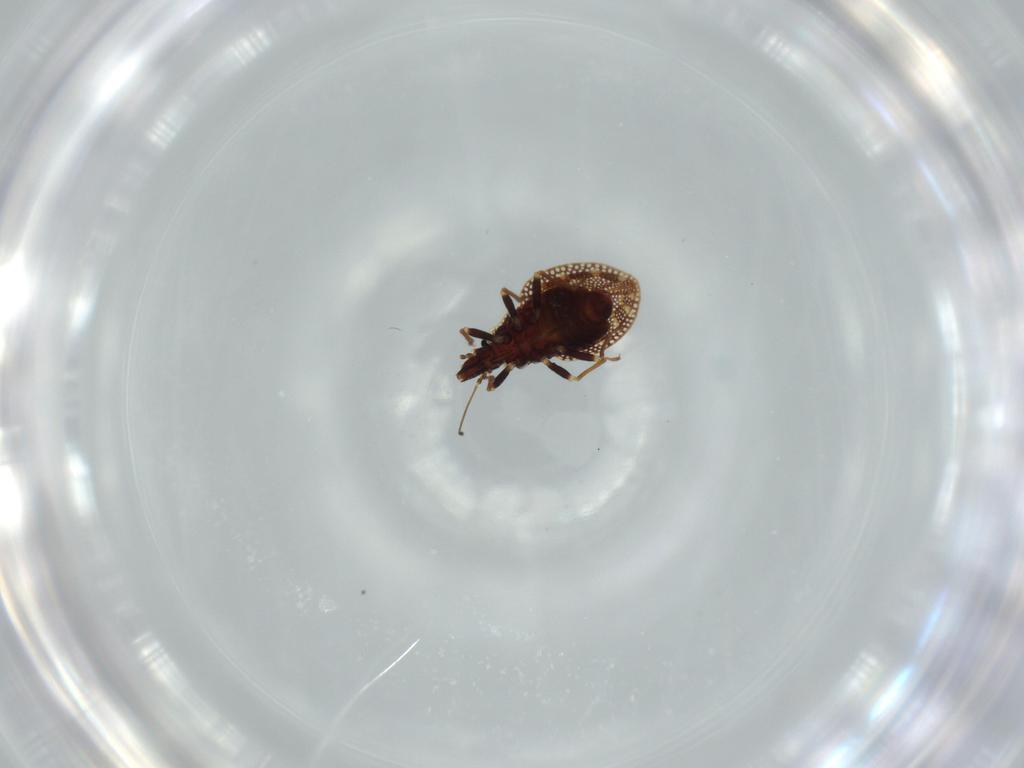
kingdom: Animalia
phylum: Arthropoda
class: Insecta
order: Hemiptera
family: Tingidae
